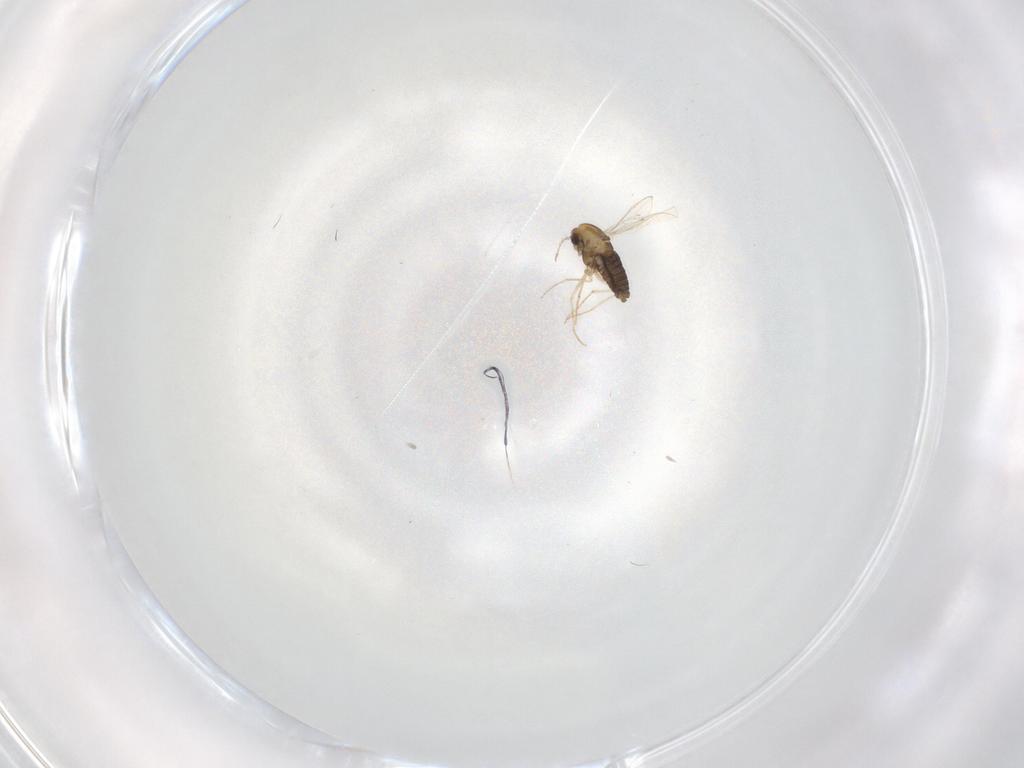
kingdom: Animalia
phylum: Arthropoda
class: Insecta
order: Diptera
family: Chironomidae
